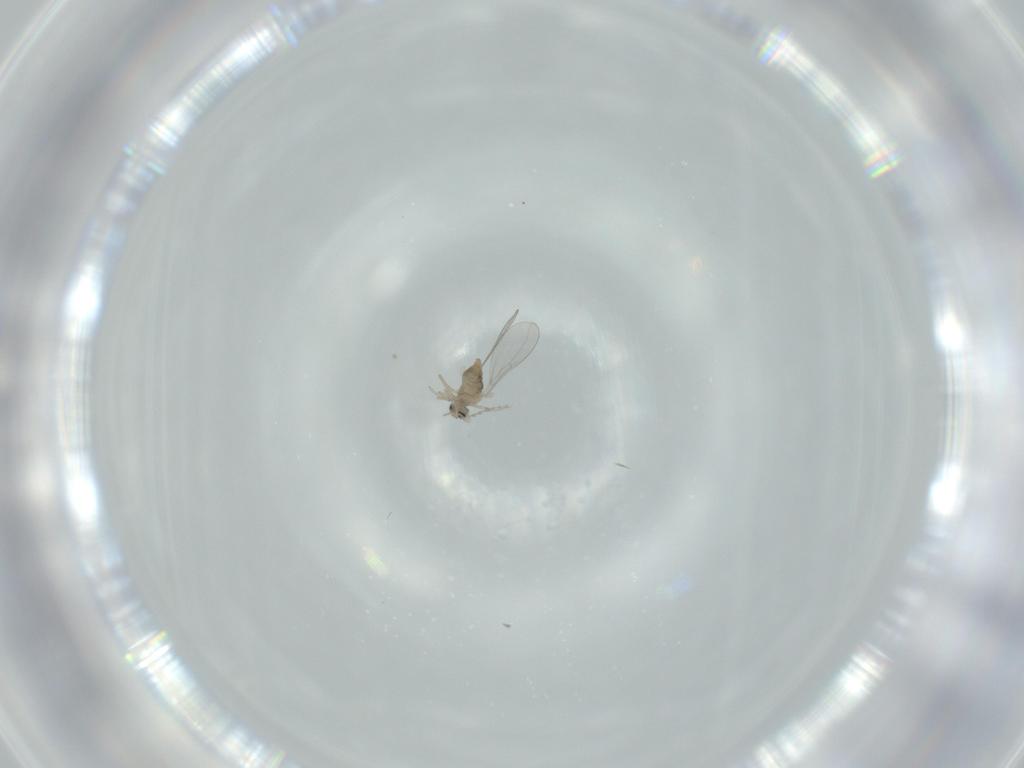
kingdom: Animalia
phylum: Arthropoda
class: Insecta
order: Diptera
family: Cecidomyiidae
